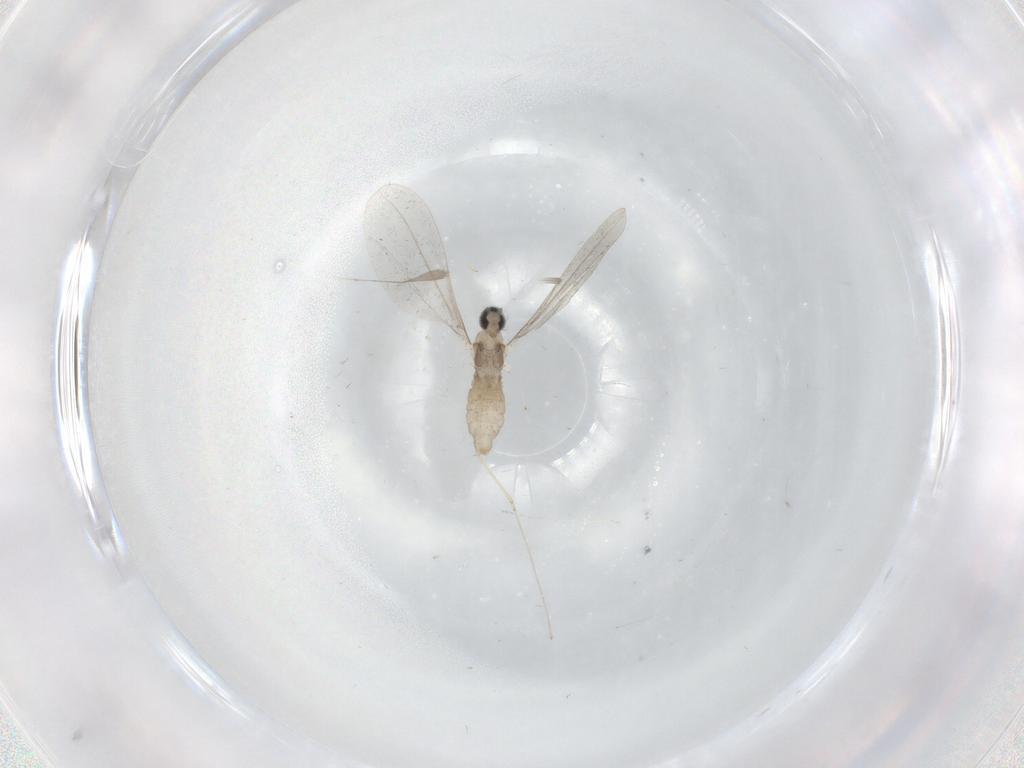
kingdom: Animalia
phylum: Arthropoda
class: Insecta
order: Diptera
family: Cecidomyiidae
